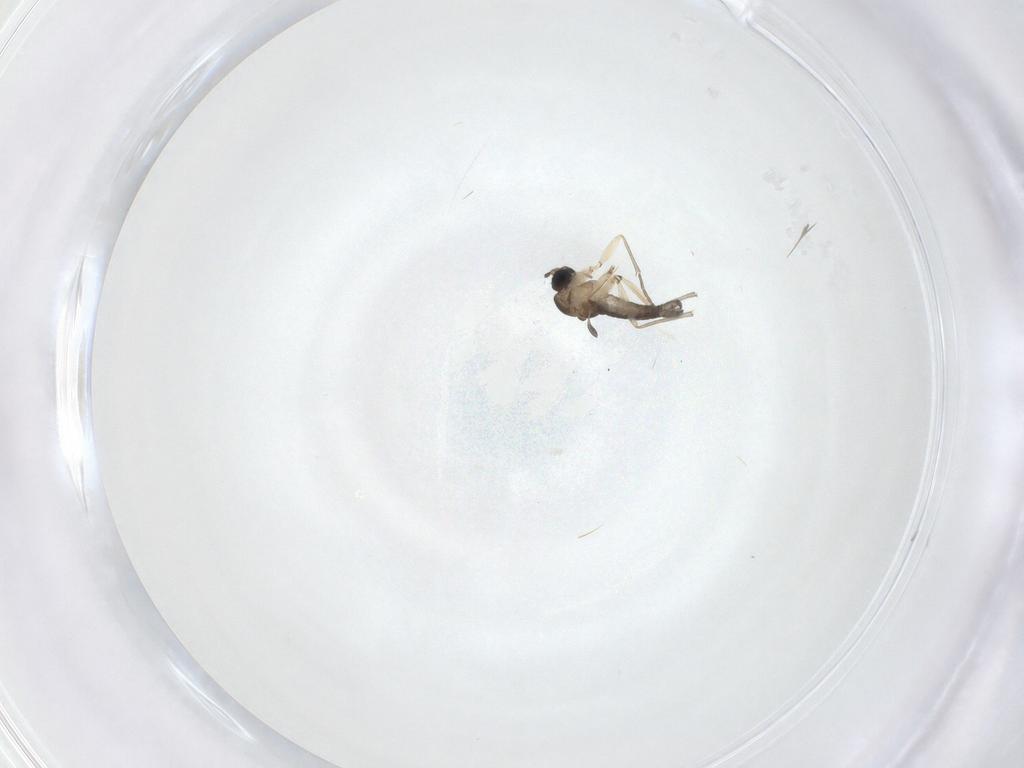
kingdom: Animalia
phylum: Arthropoda
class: Insecta
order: Diptera
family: Sciaridae
